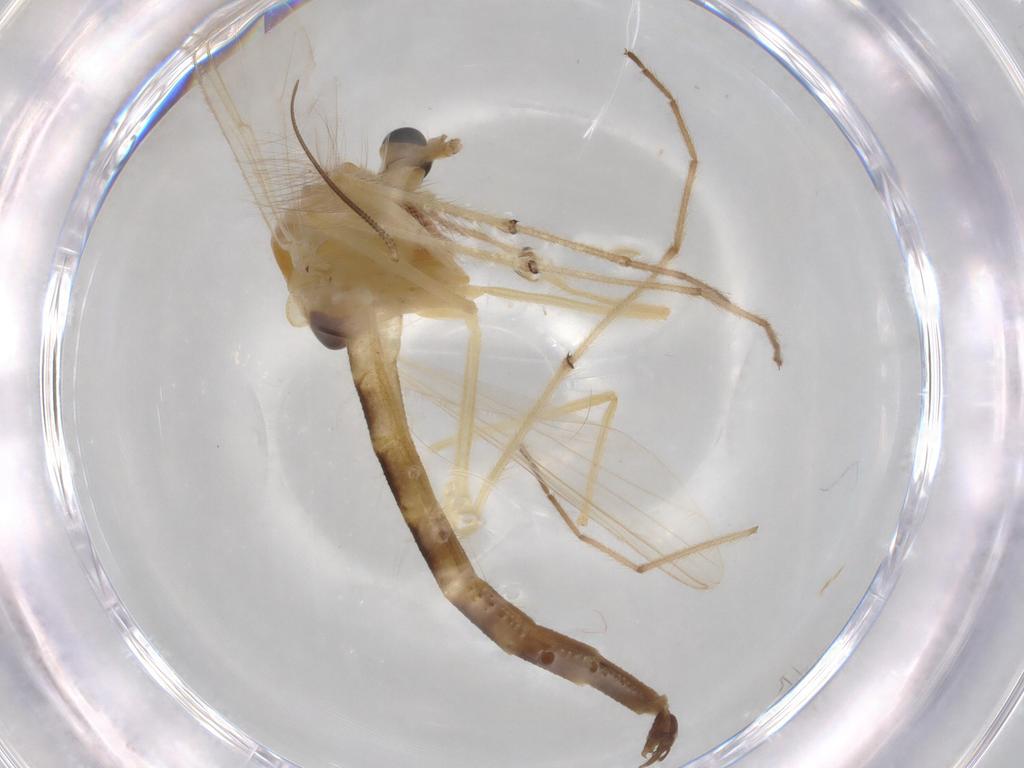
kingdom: Animalia
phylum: Arthropoda
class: Insecta
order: Diptera
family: Chironomidae
